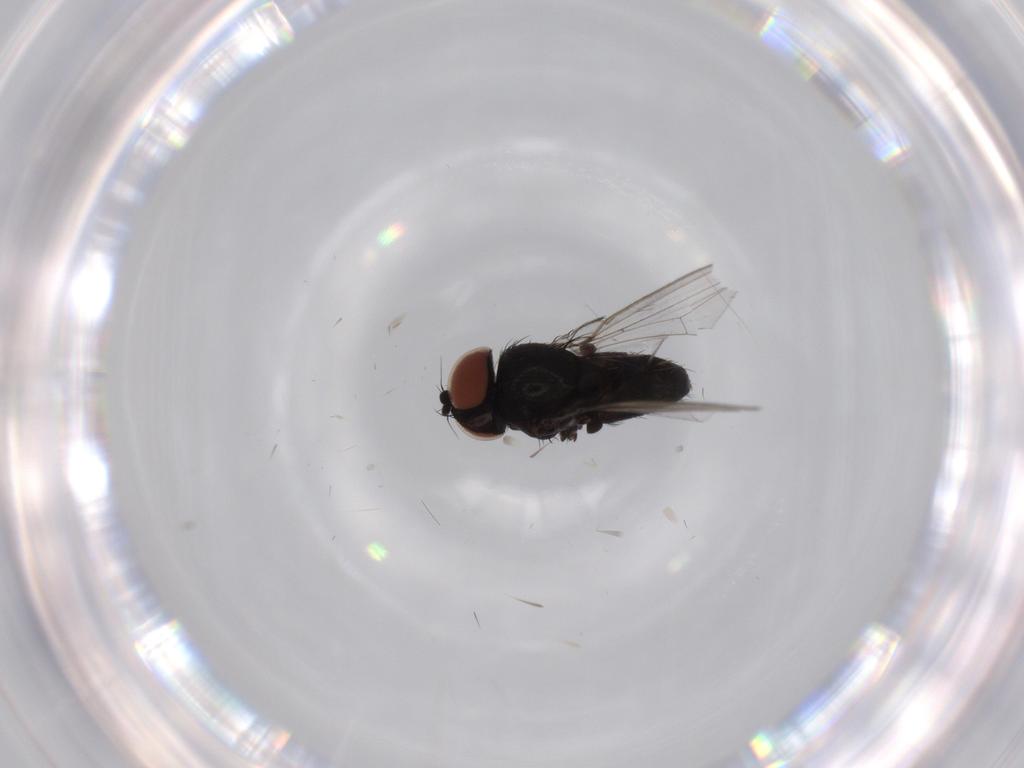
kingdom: Animalia
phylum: Arthropoda
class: Insecta
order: Diptera
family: Milichiidae
